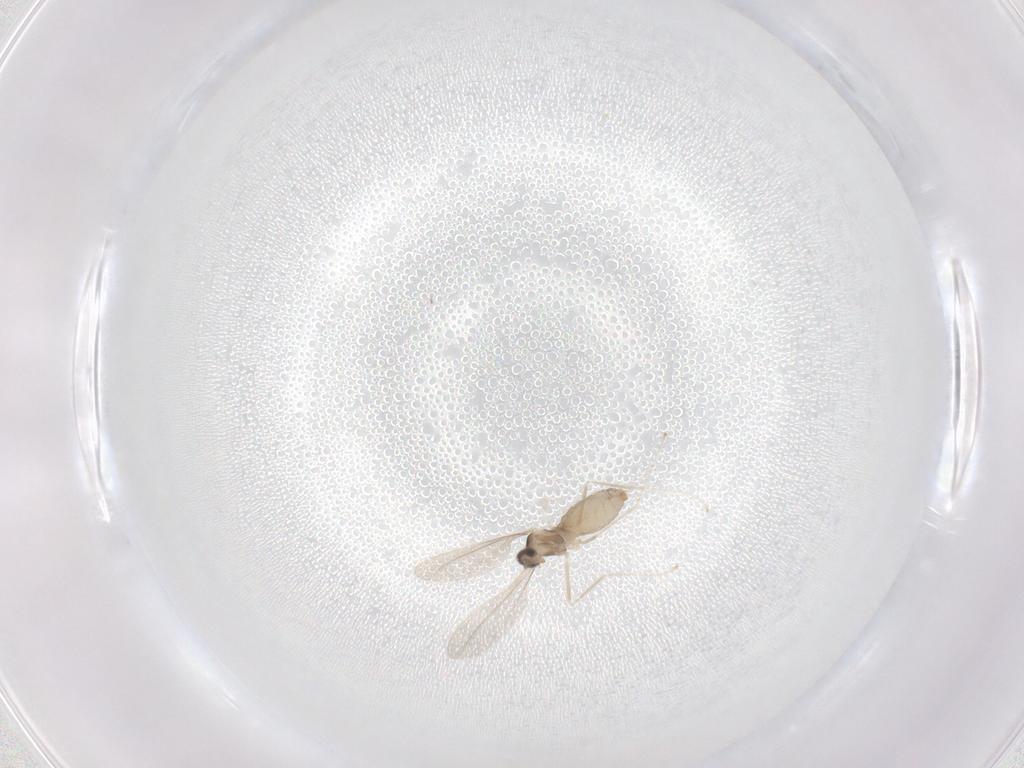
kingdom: Animalia
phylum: Arthropoda
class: Insecta
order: Diptera
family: Cecidomyiidae
